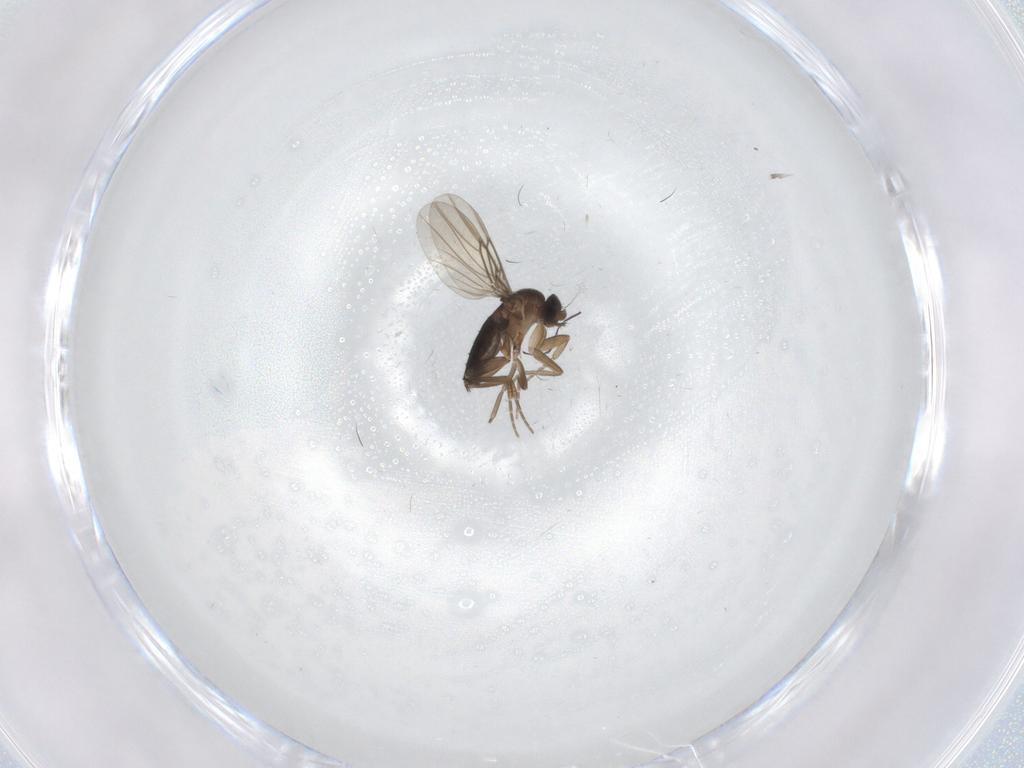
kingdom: Animalia
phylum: Arthropoda
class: Insecta
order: Diptera
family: Phoridae
